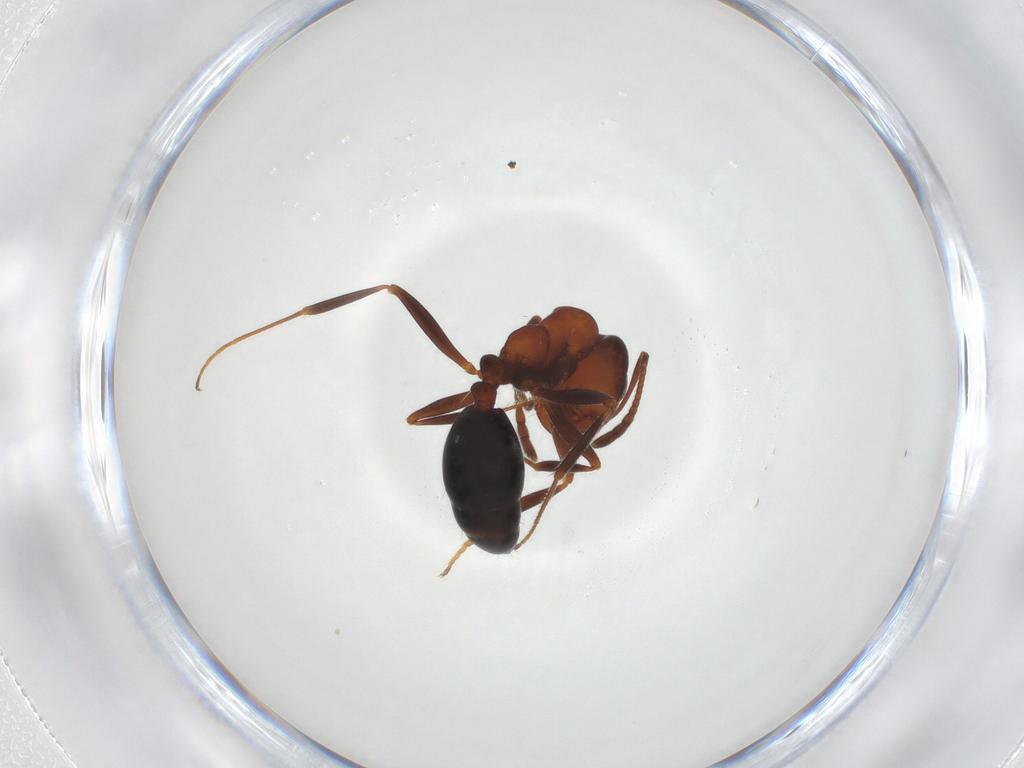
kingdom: Animalia
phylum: Arthropoda
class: Insecta
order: Hymenoptera
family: Formicidae
